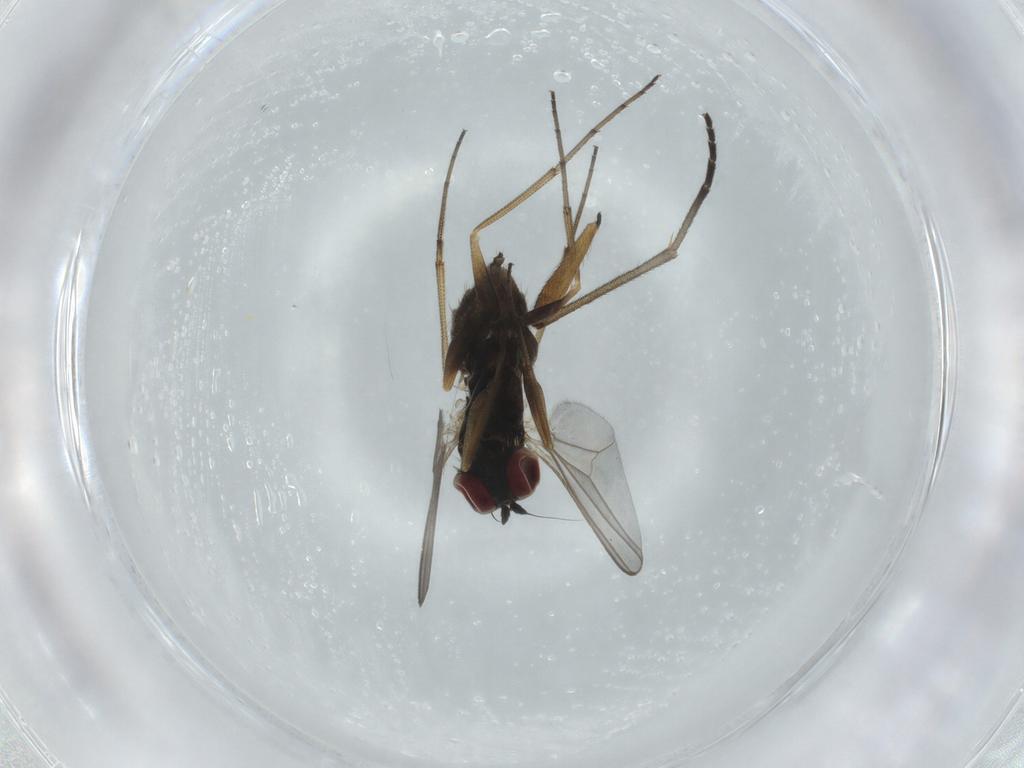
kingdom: Animalia
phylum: Arthropoda
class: Insecta
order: Diptera
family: Dolichopodidae
